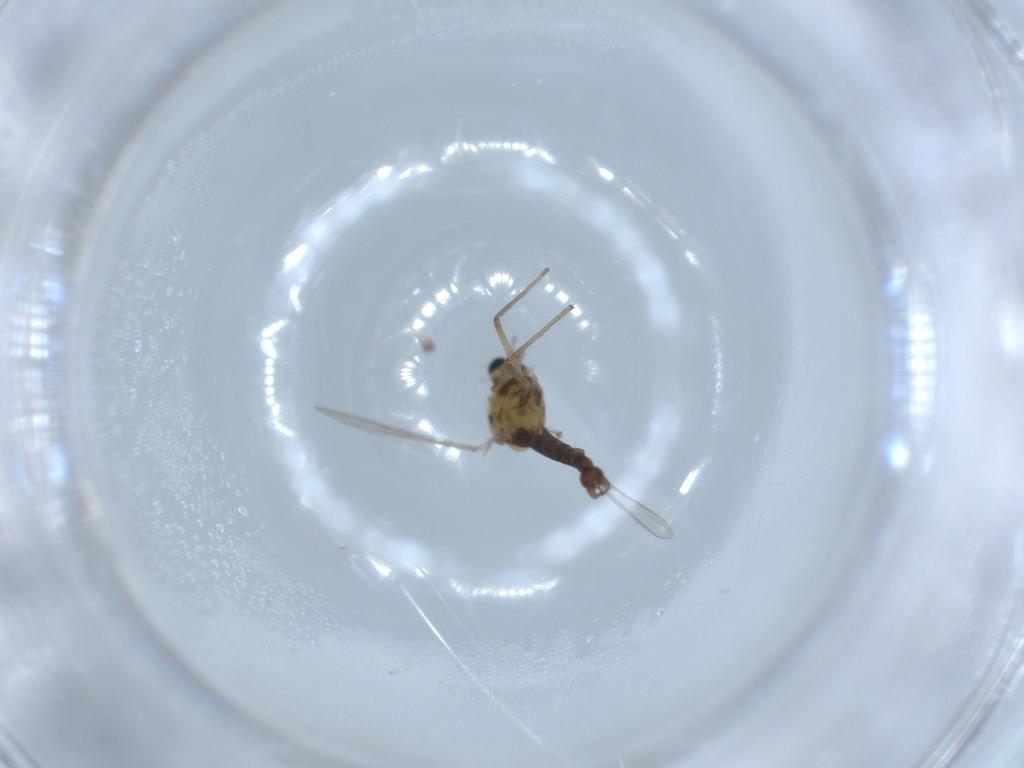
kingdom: Animalia
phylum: Arthropoda
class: Insecta
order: Diptera
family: Chironomidae
